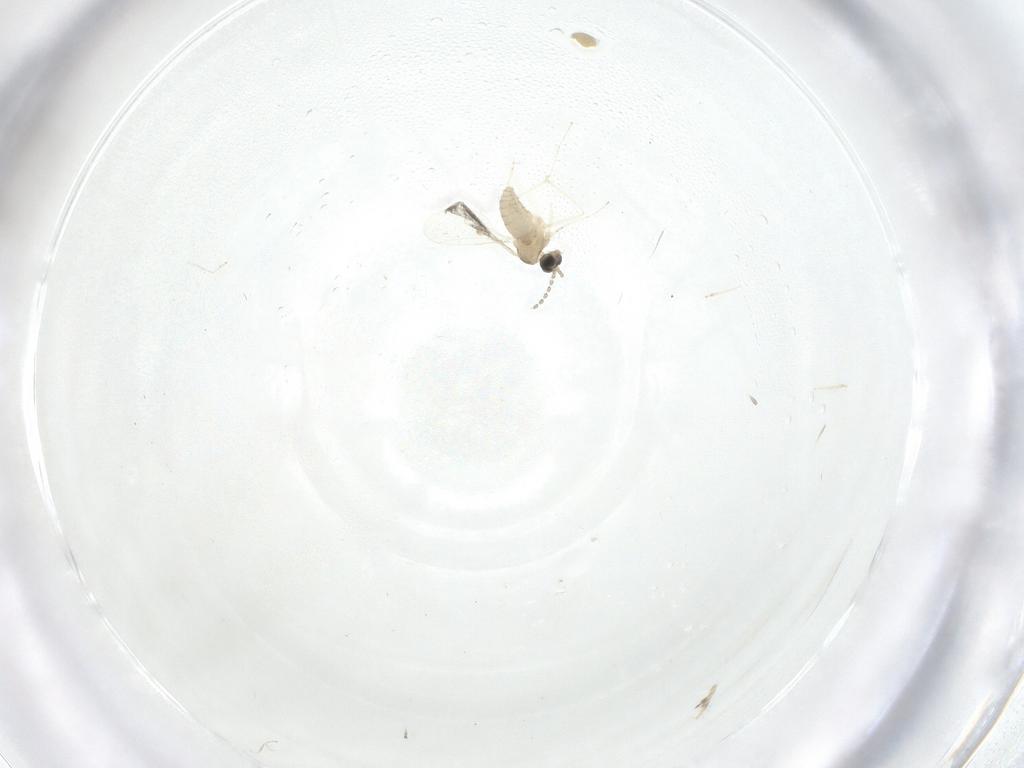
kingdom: Animalia
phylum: Arthropoda
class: Insecta
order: Diptera
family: Cecidomyiidae
